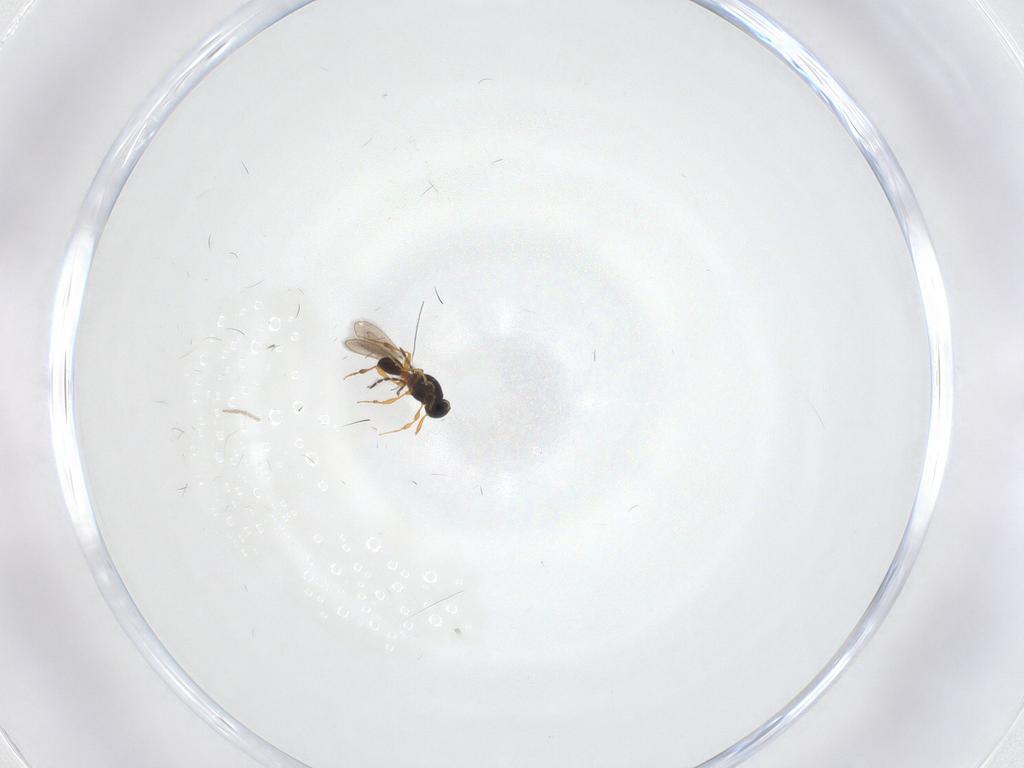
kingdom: Animalia
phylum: Arthropoda
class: Insecta
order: Hymenoptera
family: Platygastridae
